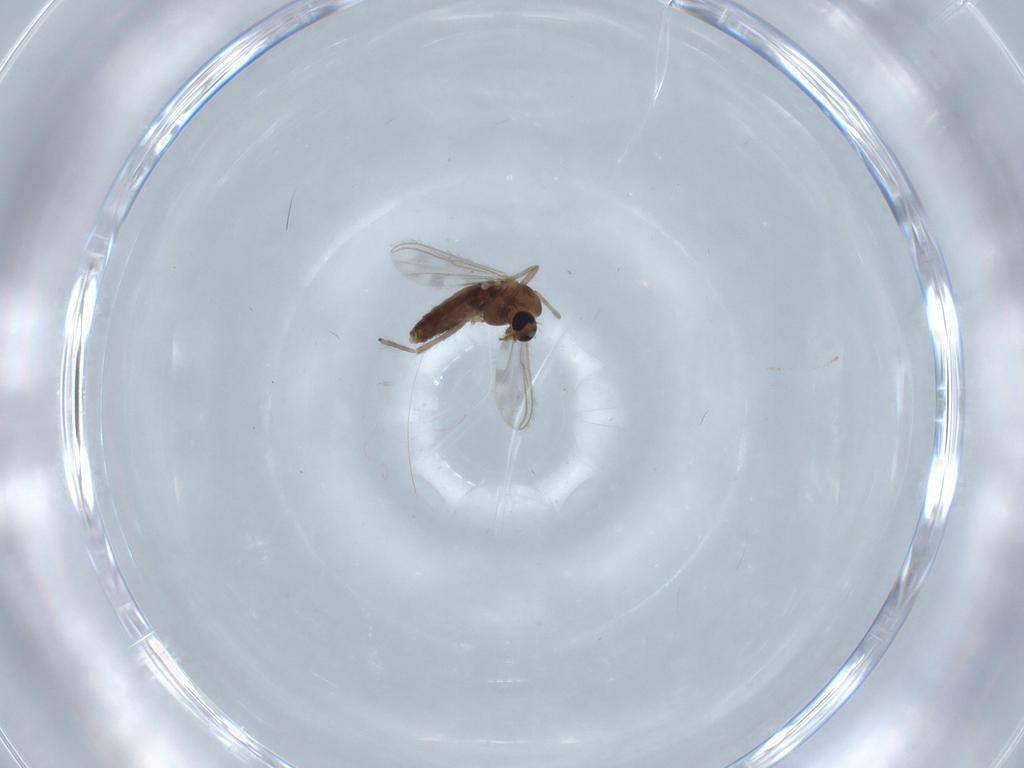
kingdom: Animalia
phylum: Arthropoda
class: Insecta
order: Diptera
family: Chironomidae
